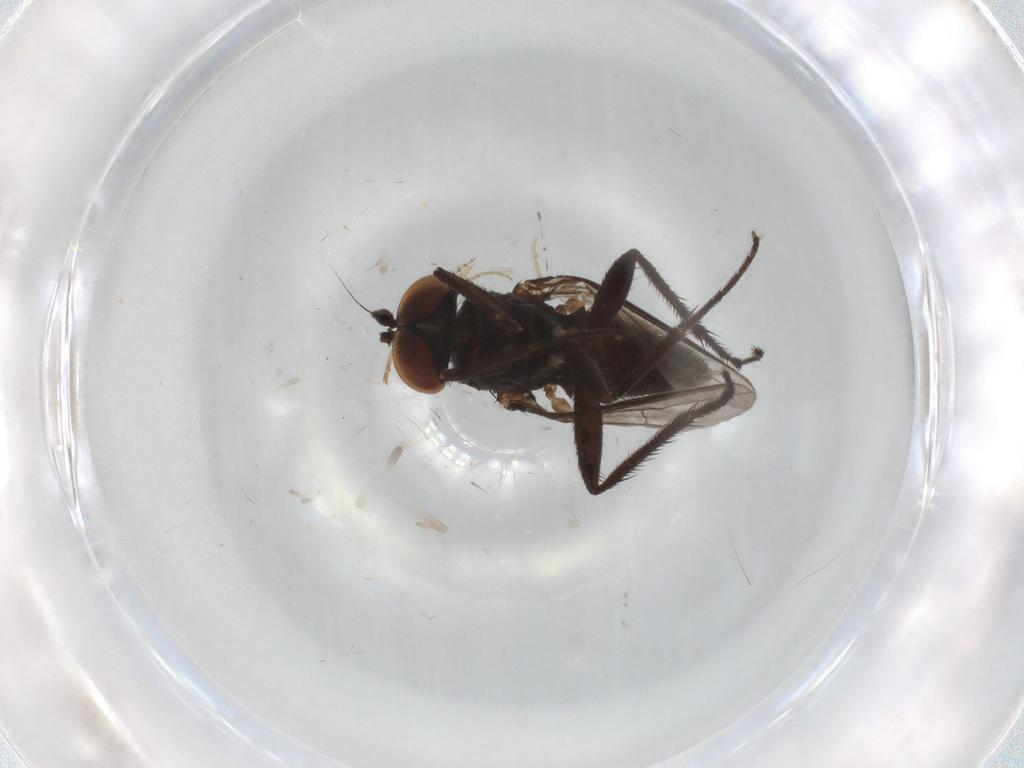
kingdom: Animalia
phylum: Arthropoda
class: Insecta
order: Diptera
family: Dolichopodidae
